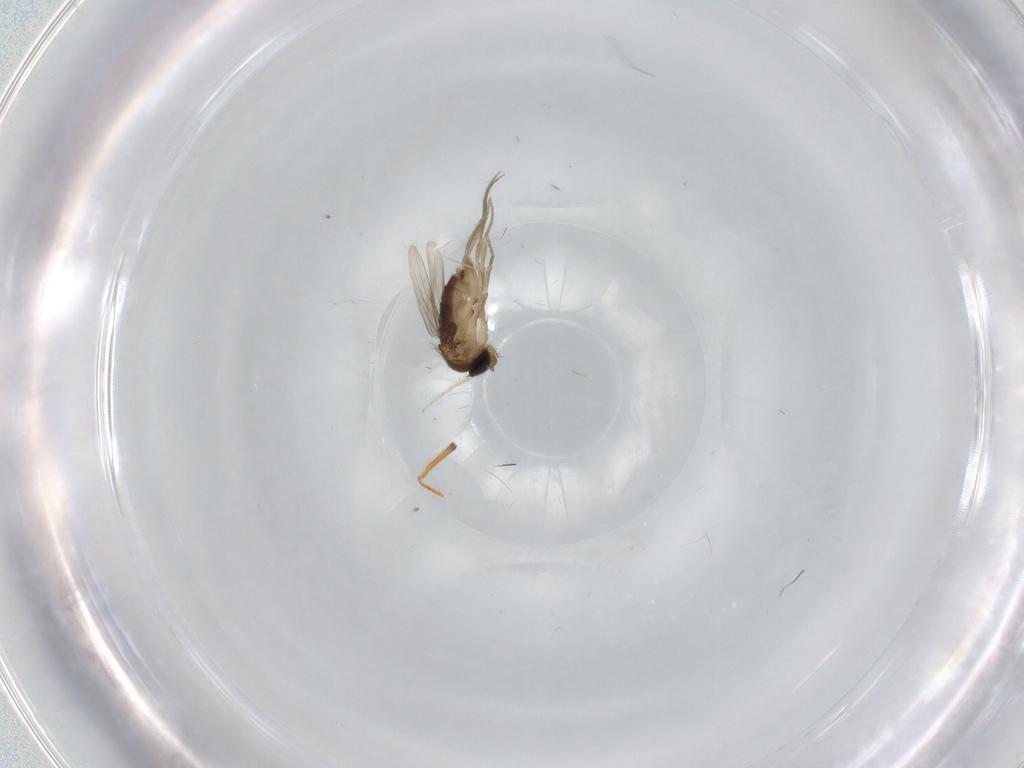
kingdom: Animalia
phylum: Arthropoda
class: Insecta
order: Diptera
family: Phoridae
